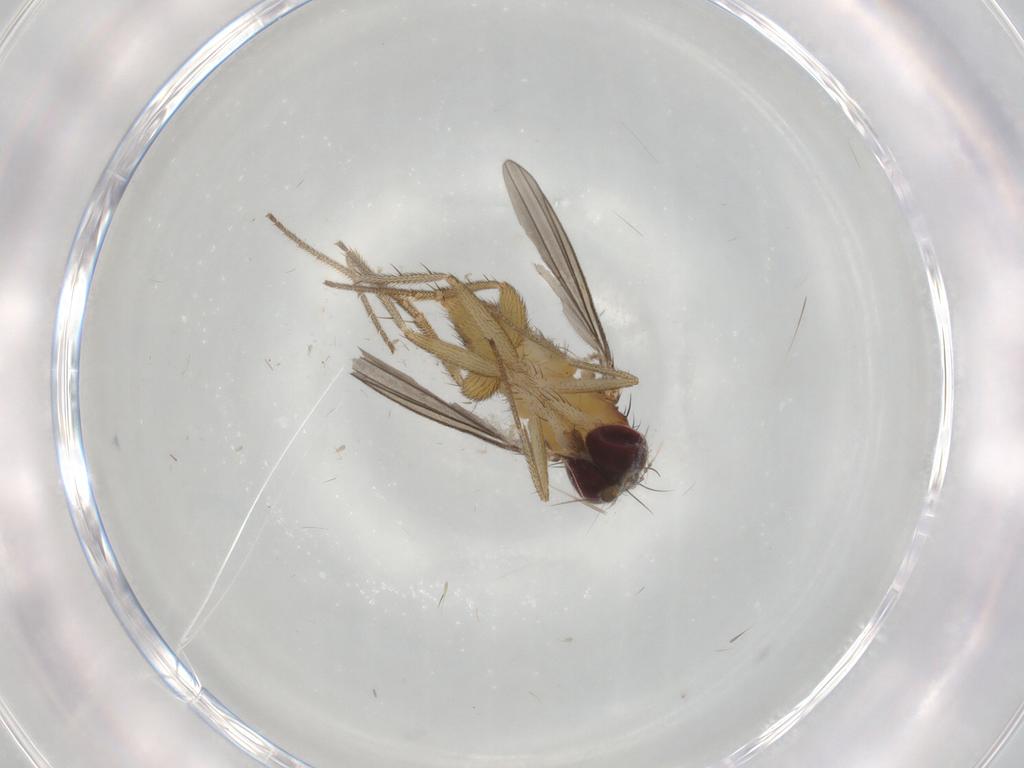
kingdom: Animalia
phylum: Arthropoda
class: Insecta
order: Diptera
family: Dolichopodidae
